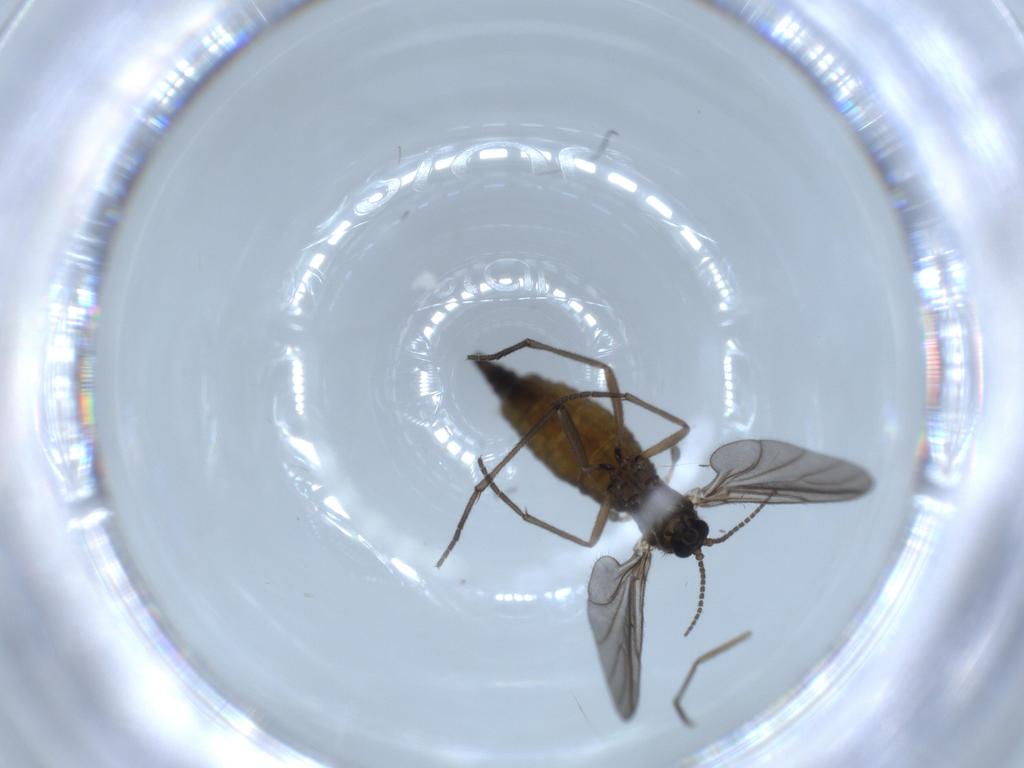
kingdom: Animalia
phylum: Arthropoda
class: Insecta
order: Diptera
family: Sciaridae
